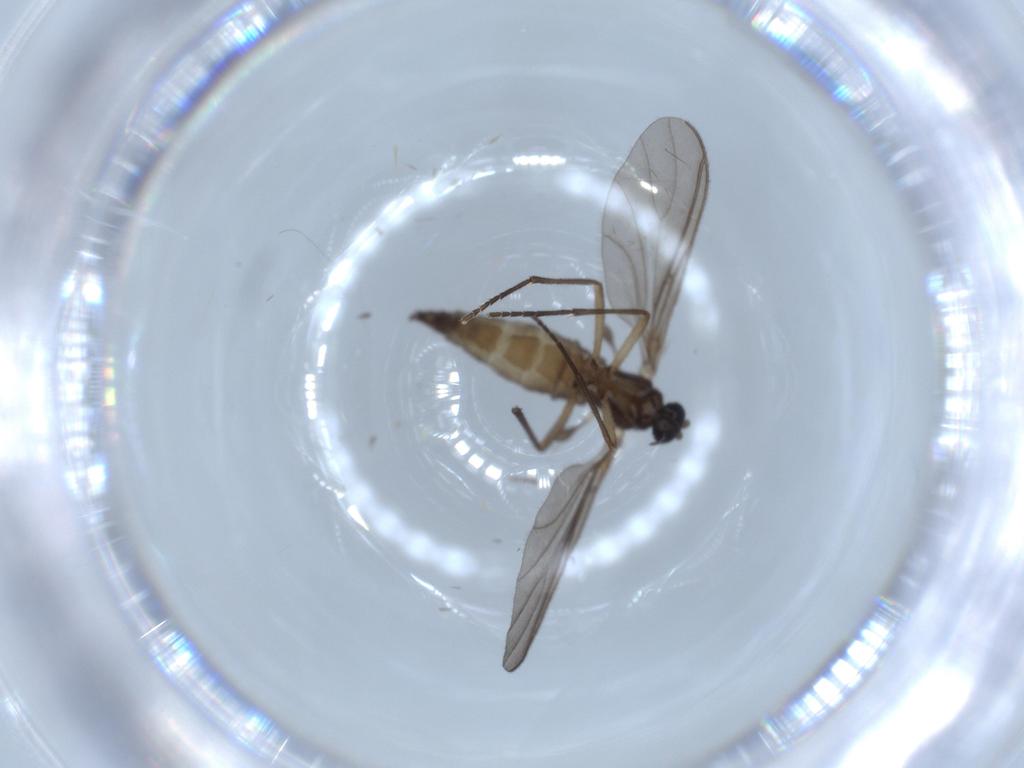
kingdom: Animalia
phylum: Arthropoda
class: Insecta
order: Diptera
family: Sciaridae
